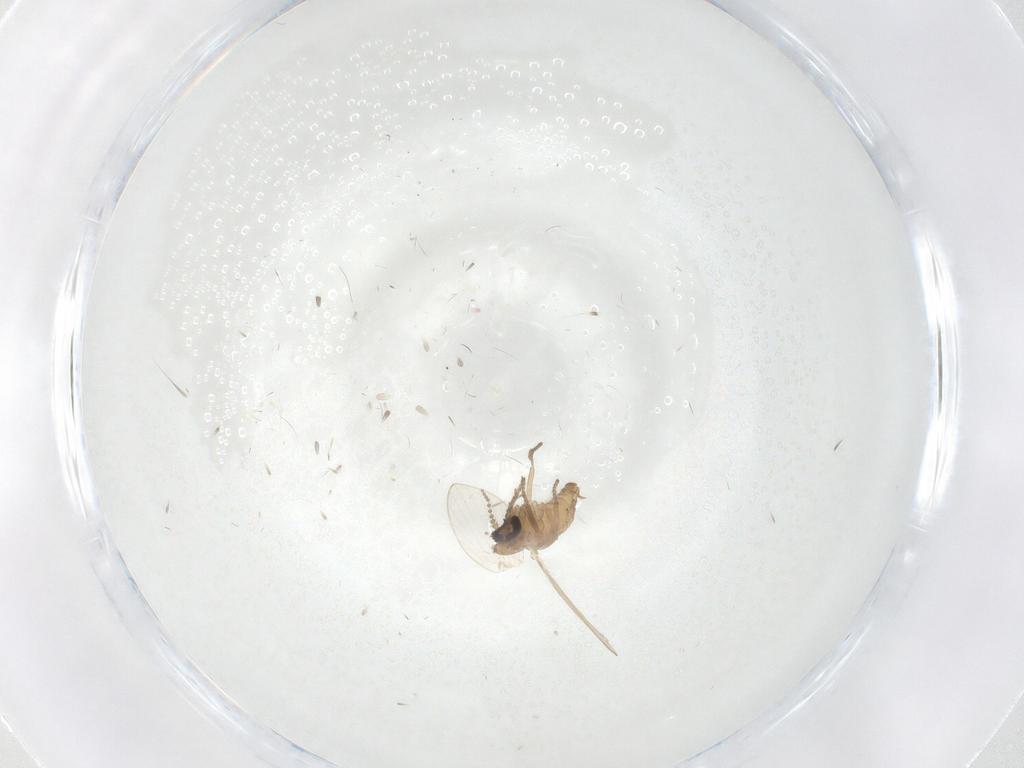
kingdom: Animalia
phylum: Arthropoda
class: Insecta
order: Diptera
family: Psychodidae
